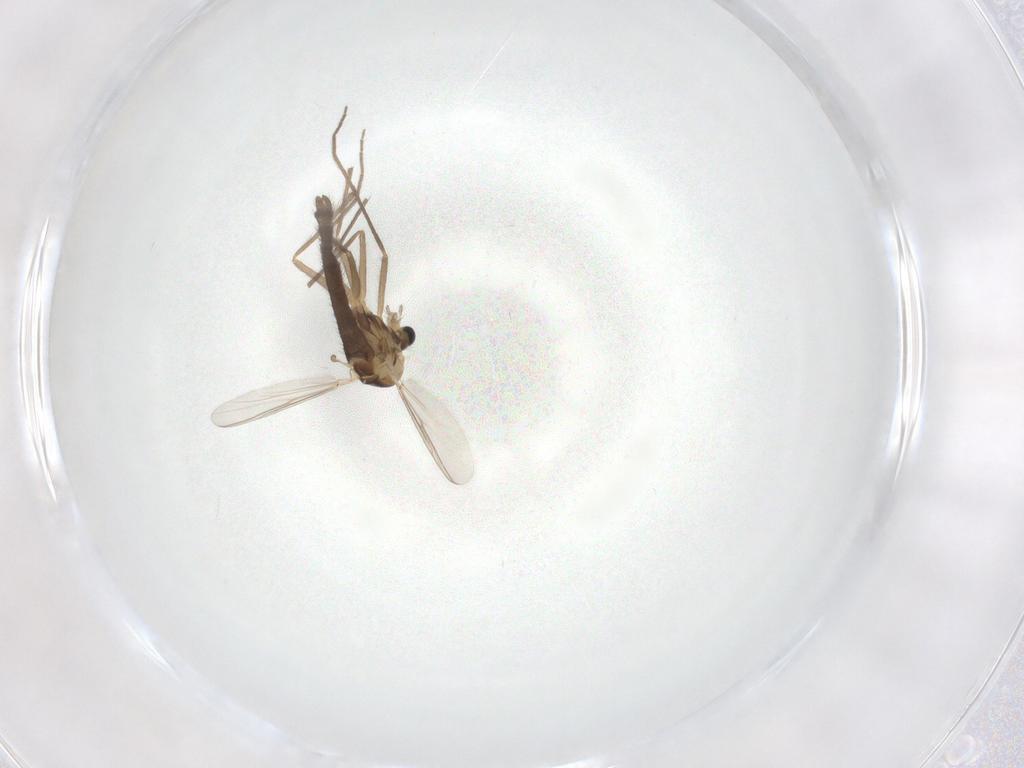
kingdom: Animalia
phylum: Arthropoda
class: Insecta
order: Diptera
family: Chironomidae
